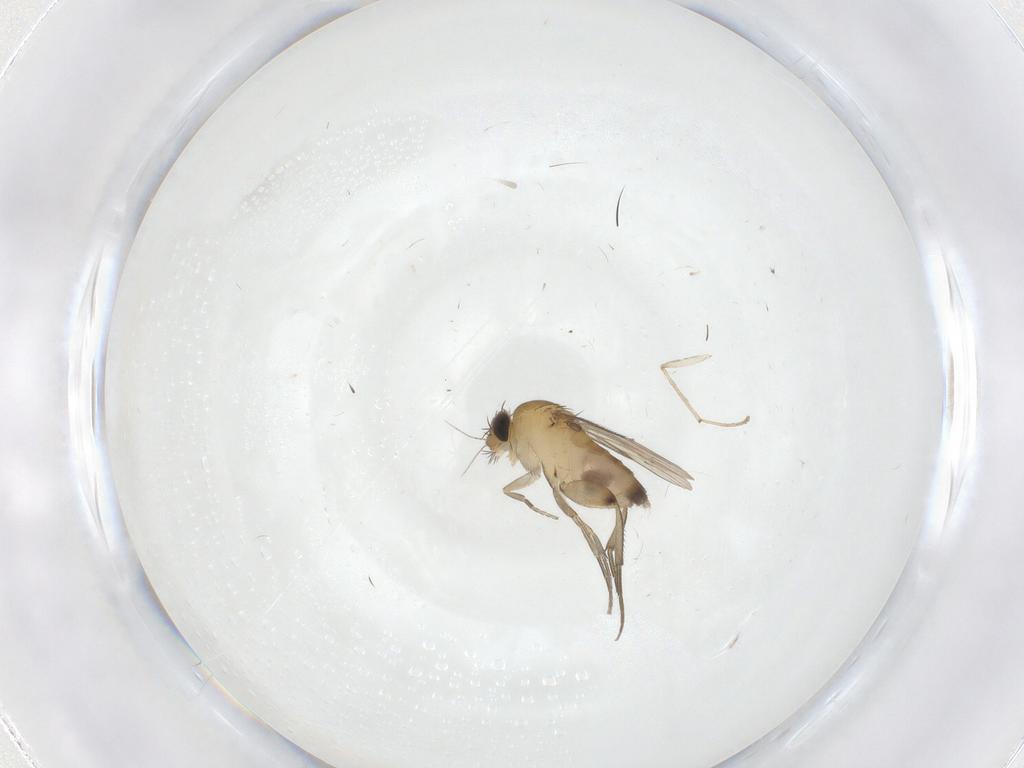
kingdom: Animalia
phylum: Arthropoda
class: Insecta
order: Diptera
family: Phoridae
